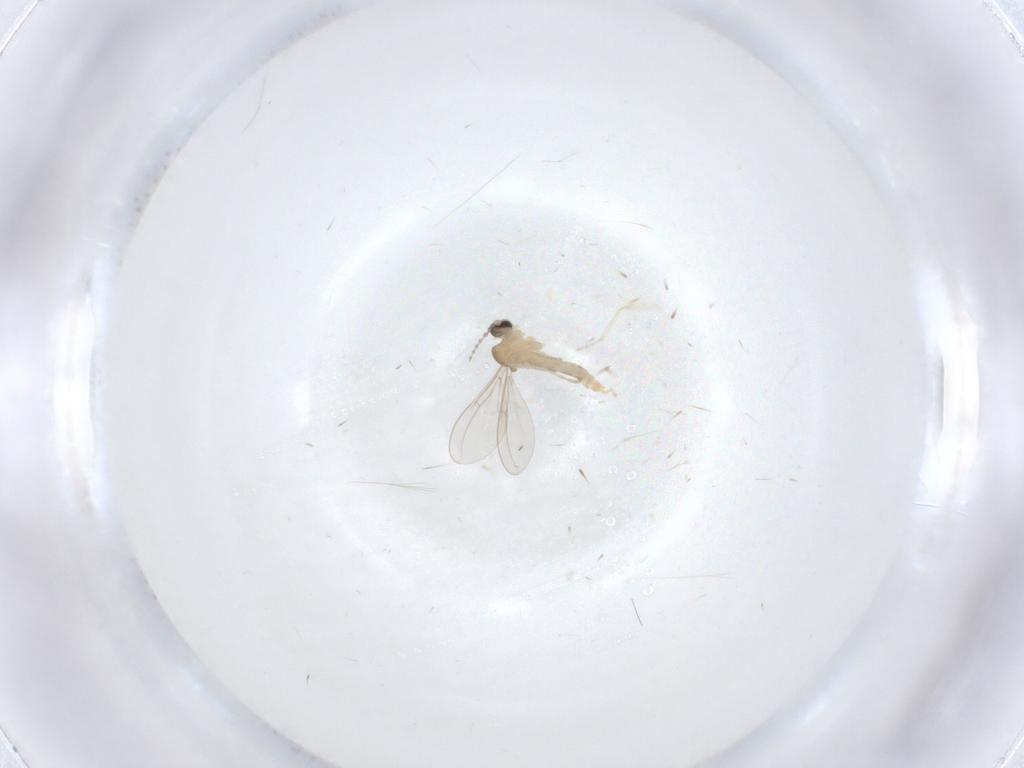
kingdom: Animalia
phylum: Arthropoda
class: Insecta
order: Diptera
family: Cecidomyiidae
